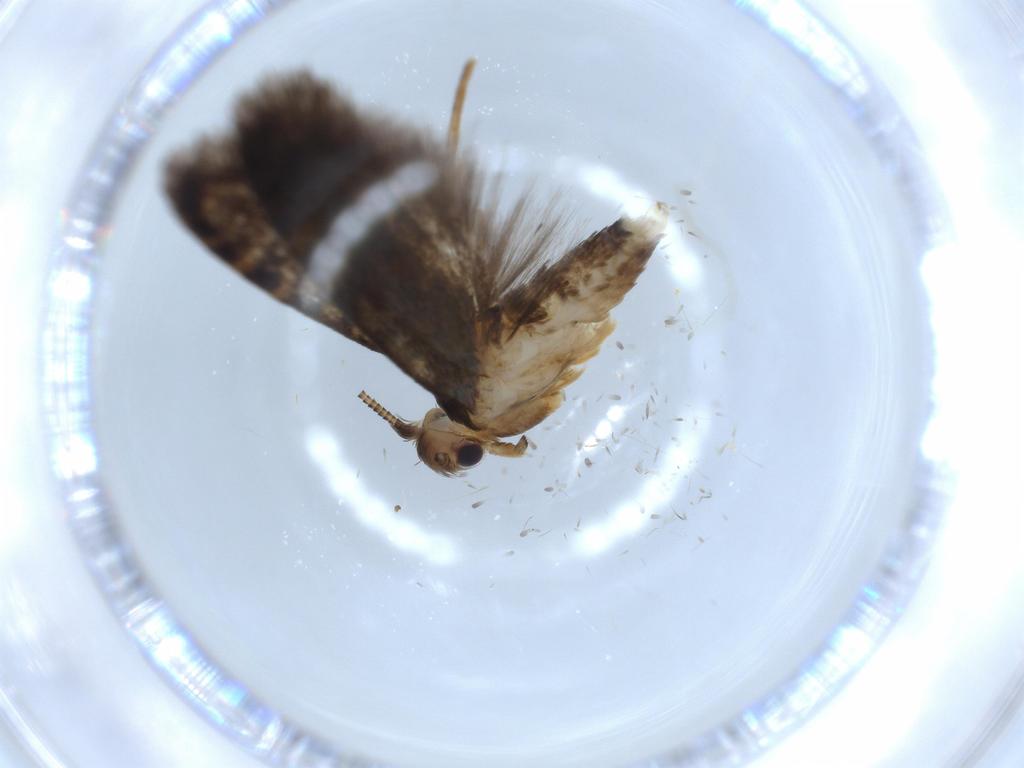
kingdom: Animalia
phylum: Arthropoda
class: Insecta
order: Lepidoptera
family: Tineidae
